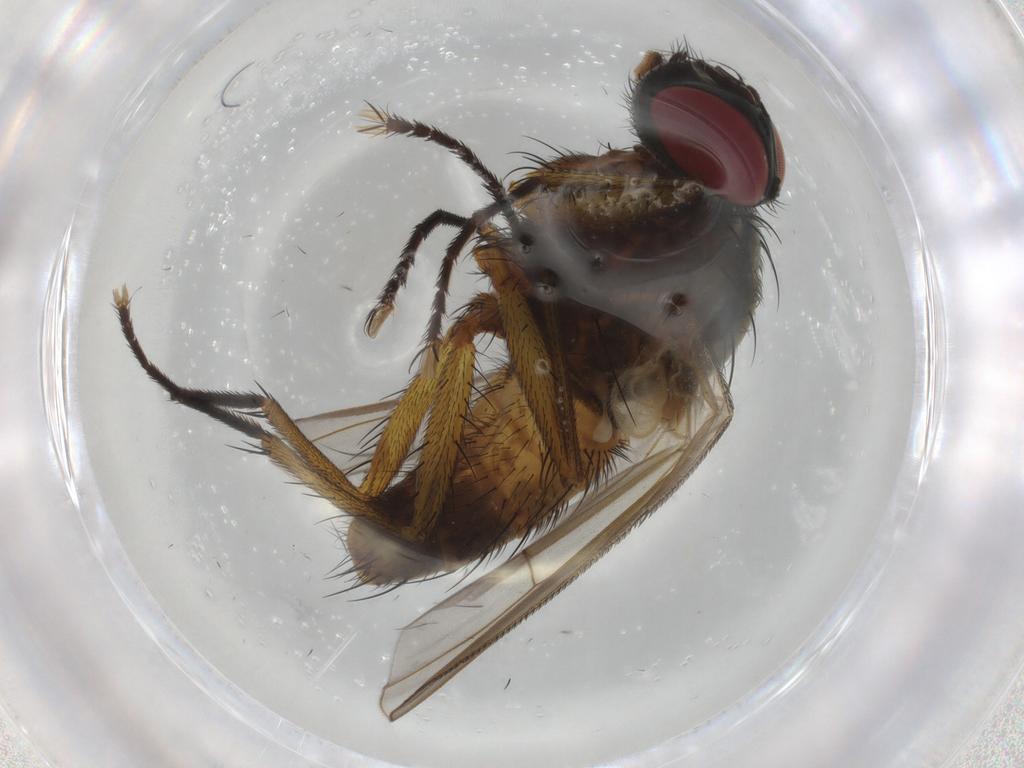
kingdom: Animalia
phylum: Arthropoda
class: Insecta
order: Diptera
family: Muscidae
